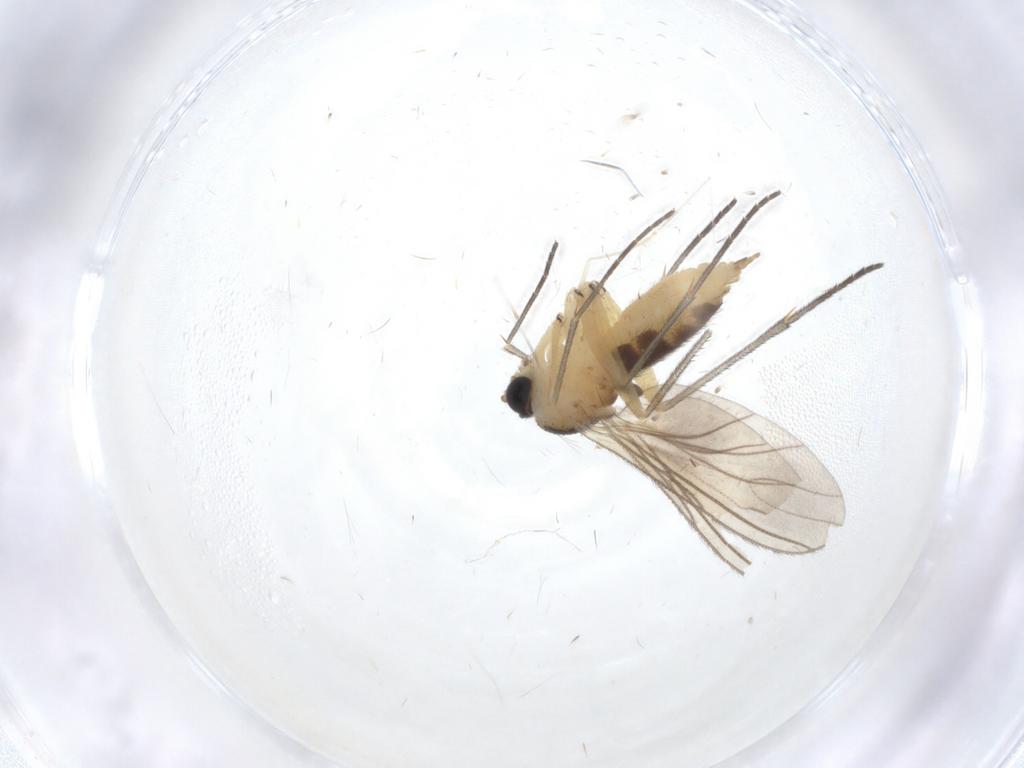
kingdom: Animalia
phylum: Arthropoda
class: Insecta
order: Diptera
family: Sciaridae
